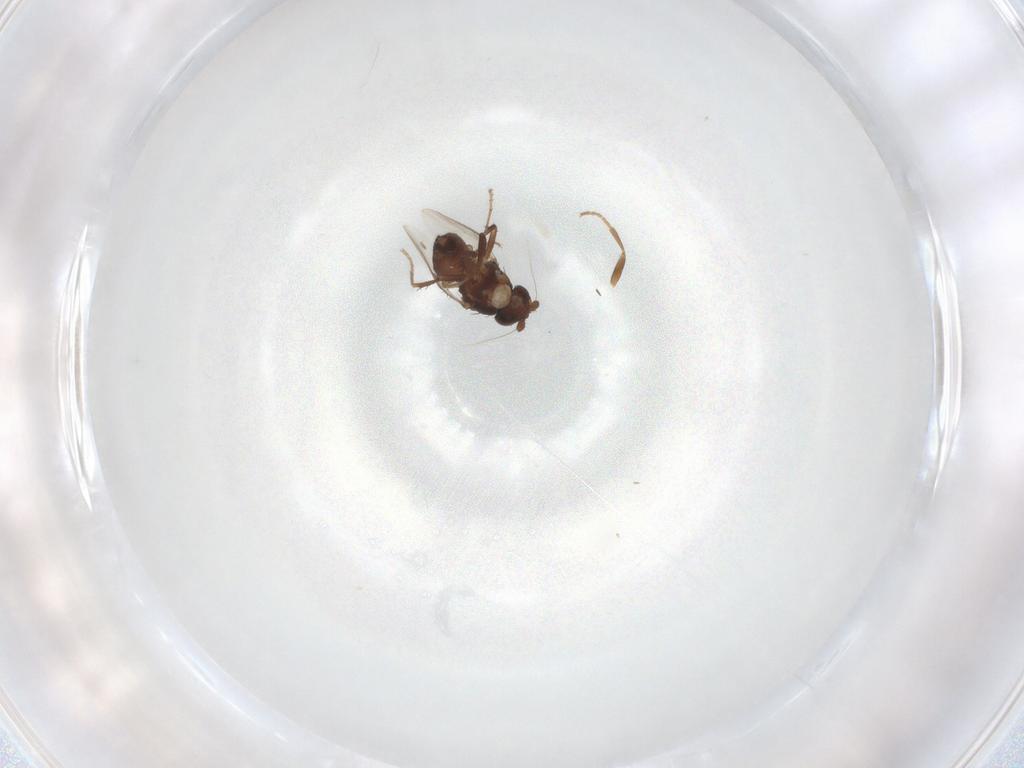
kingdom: Animalia
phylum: Arthropoda
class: Insecta
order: Diptera
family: Sphaeroceridae
